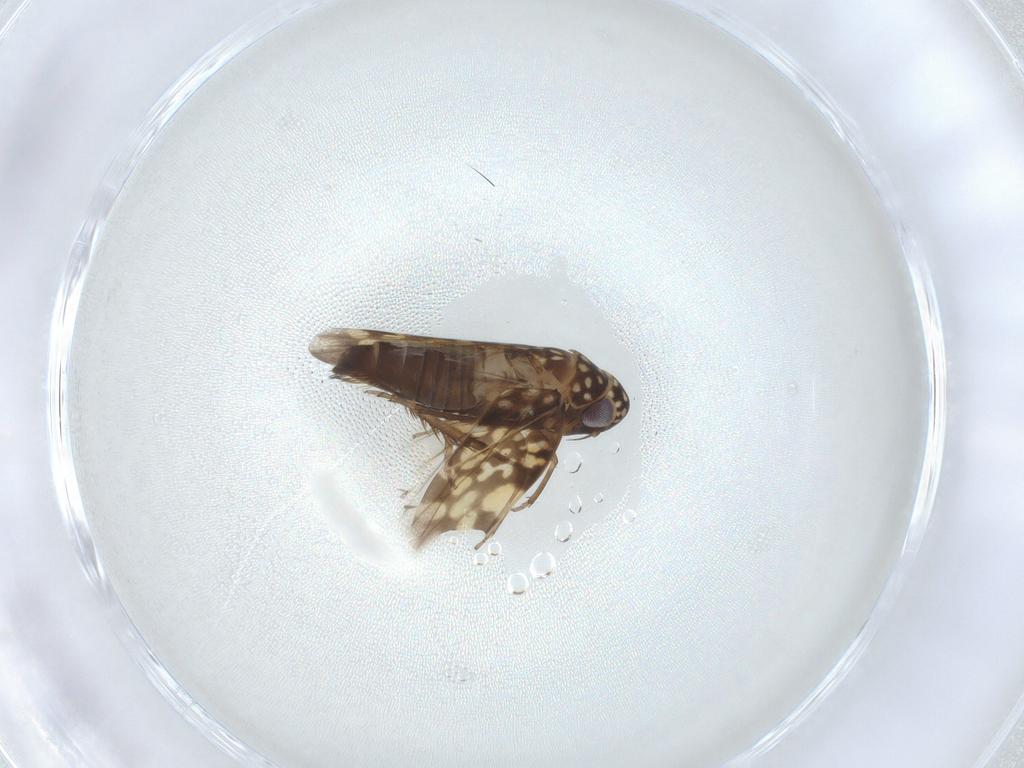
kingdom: Animalia
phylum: Arthropoda
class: Insecta
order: Hemiptera
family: Cicadellidae
